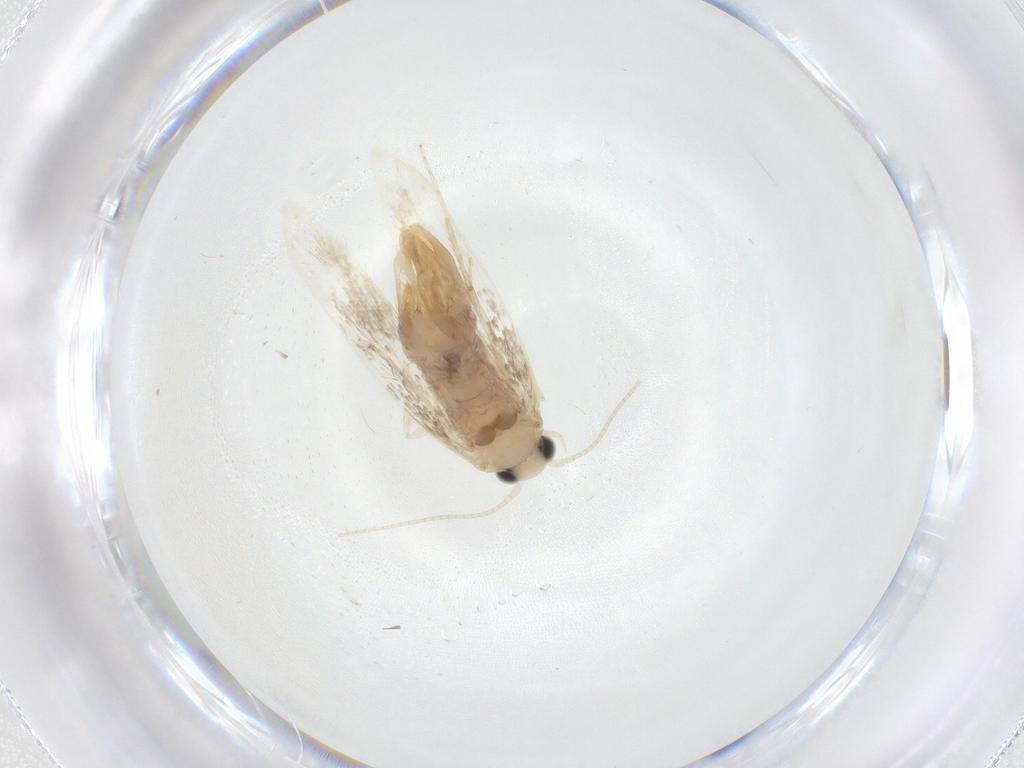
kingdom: Animalia
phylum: Arthropoda
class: Insecta
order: Lepidoptera
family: Dryadaulidae
